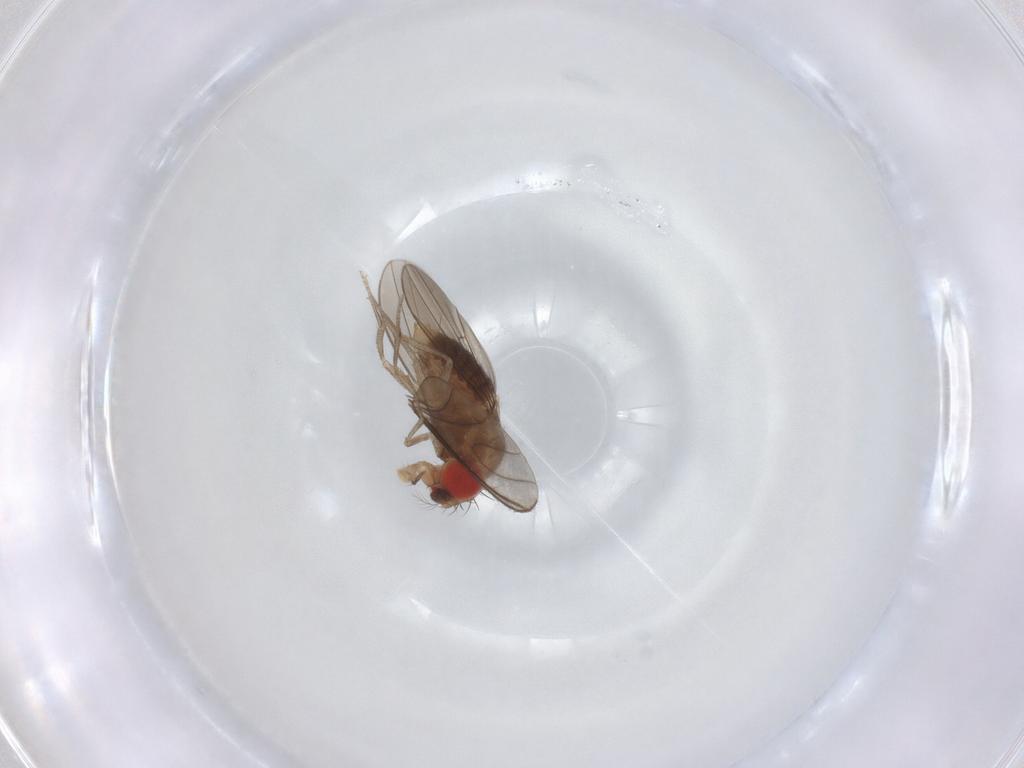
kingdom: Animalia
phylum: Arthropoda
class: Insecta
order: Diptera
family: Drosophilidae
